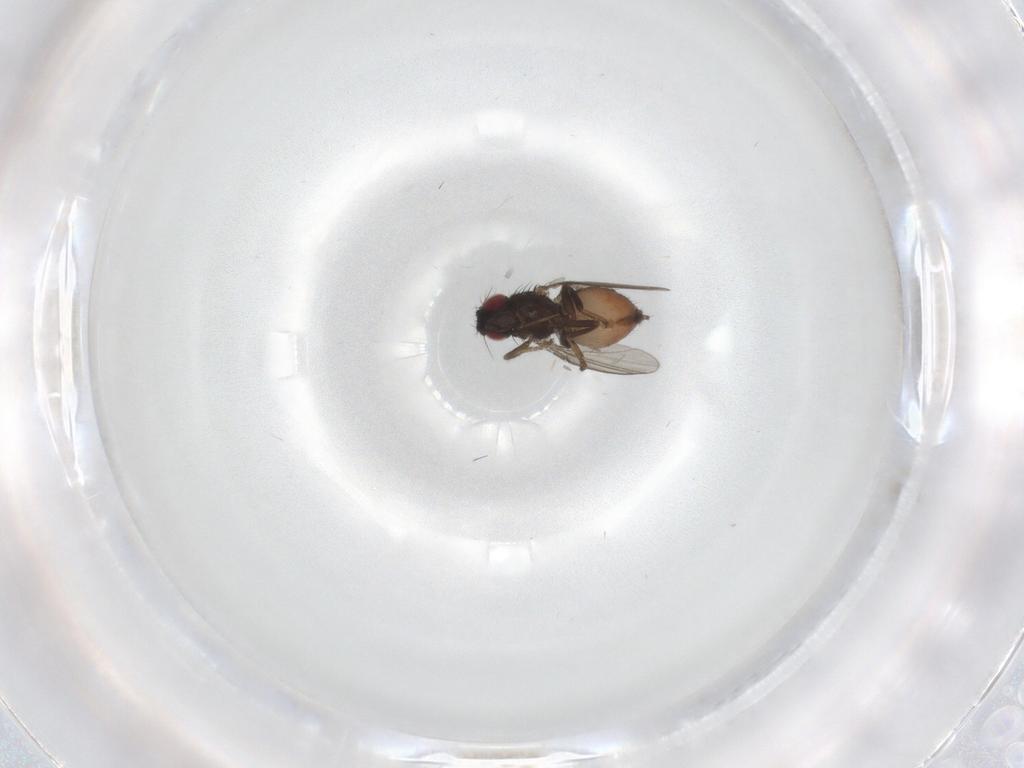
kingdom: Animalia
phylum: Arthropoda
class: Insecta
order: Diptera
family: Milichiidae
